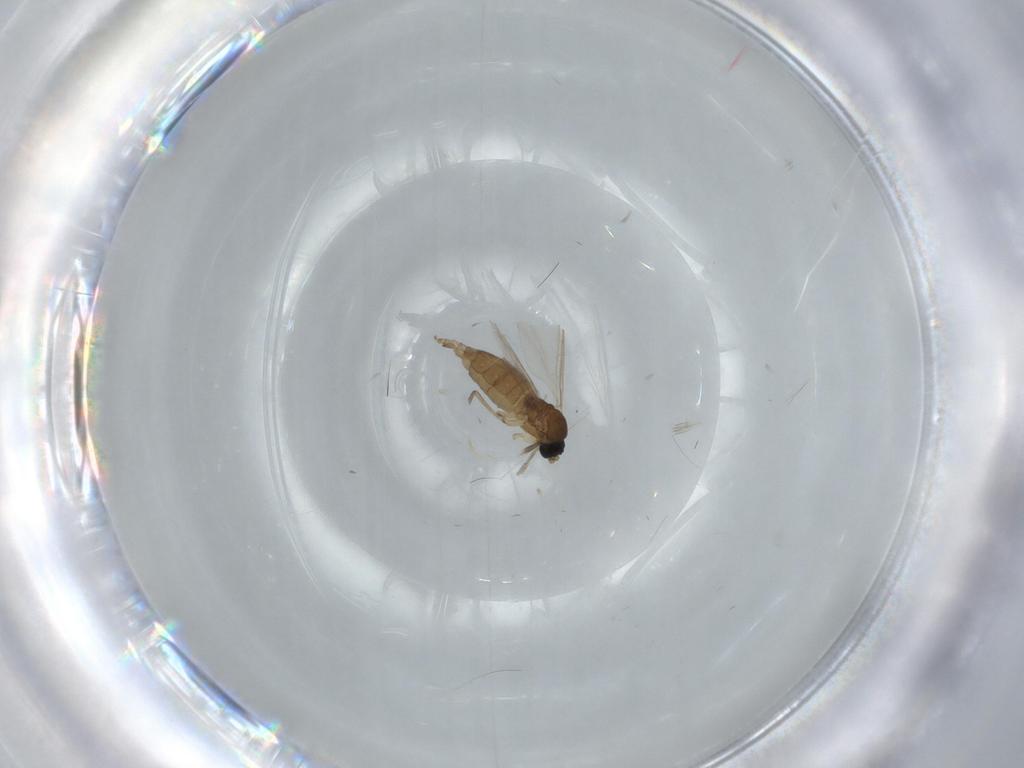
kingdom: Animalia
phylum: Arthropoda
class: Insecta
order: Diptera
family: Sciaridae
